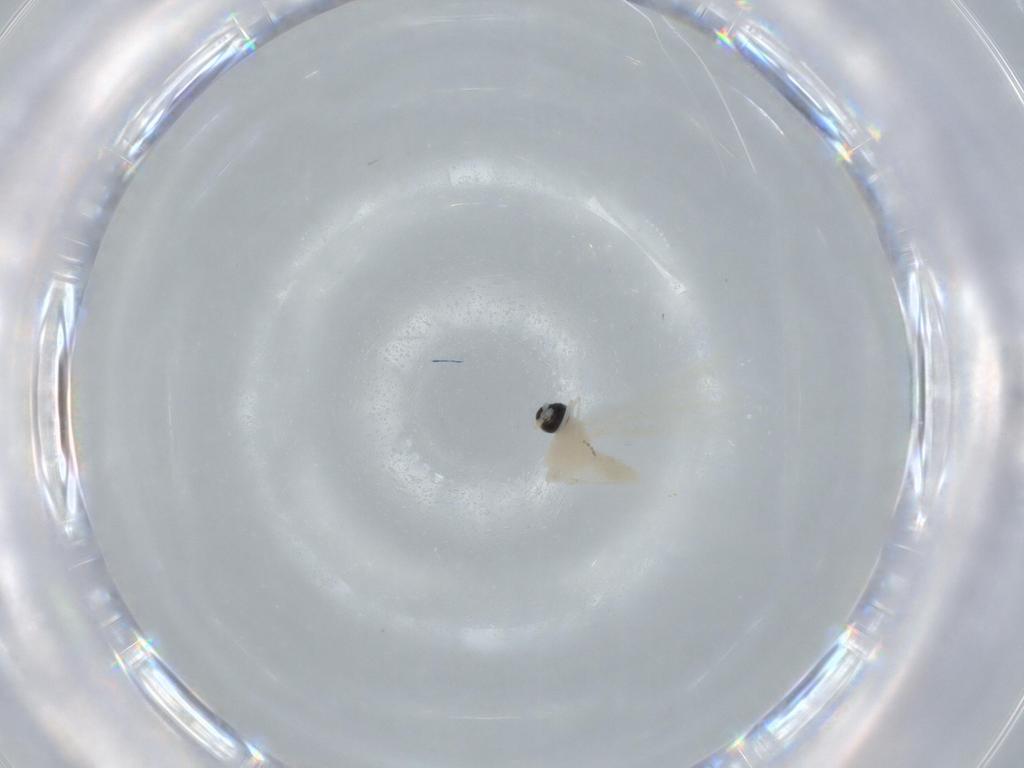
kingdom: Animalia
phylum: Arthropoda
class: Insecta
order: Diptera
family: Cecidomyiidae
